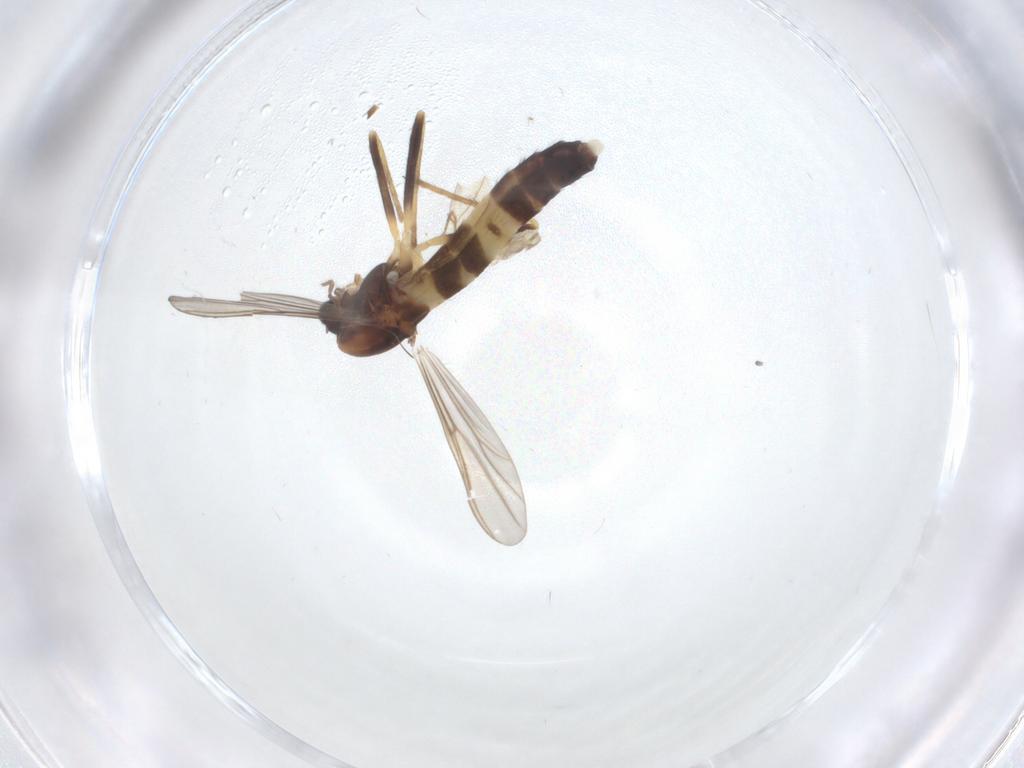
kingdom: Animalia
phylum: Arthropoda
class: Insecta
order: Diptera
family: Chironomidae
